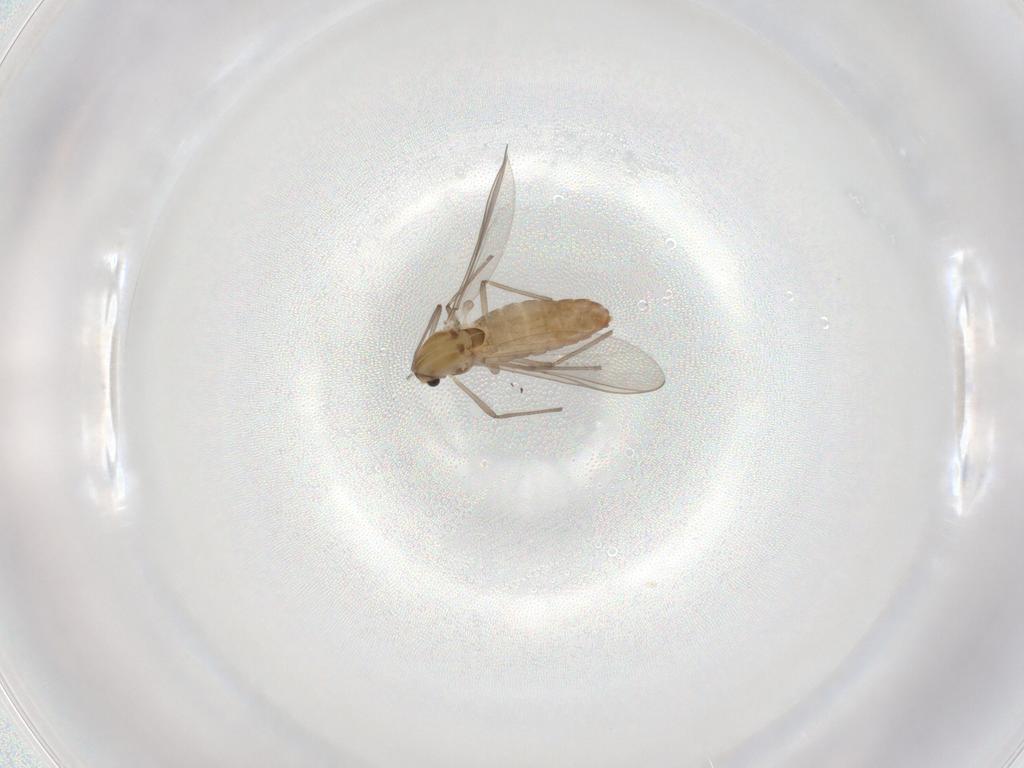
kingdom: Animalia
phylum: Arthropoda
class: Insecta
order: Diptera
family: Chironomidae
